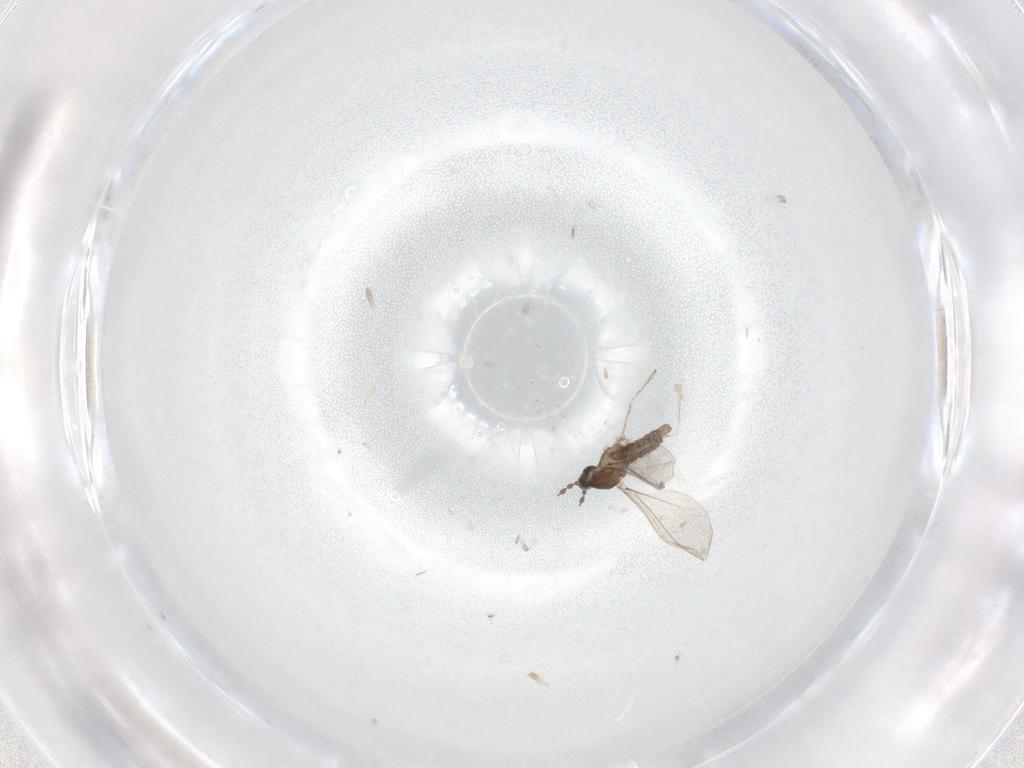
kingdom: Animalia
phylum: Arthropoda
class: Insecta
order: Diptera
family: Cecidomyiidae
